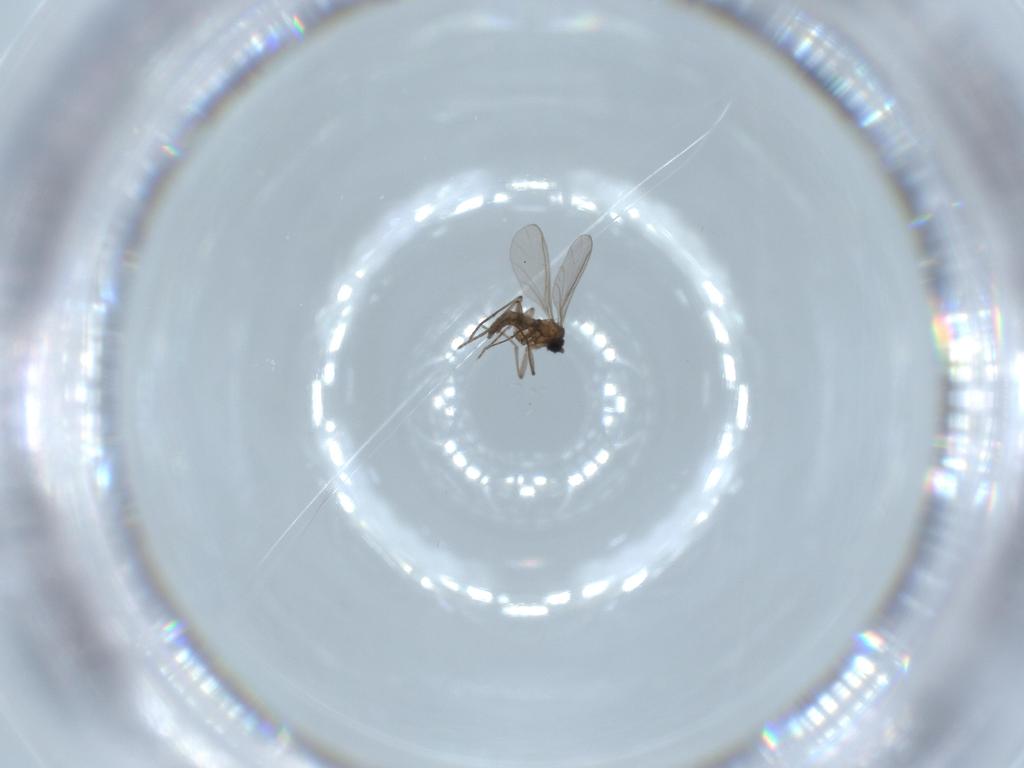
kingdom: Animalia
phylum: Arthropoda
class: Insecta
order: Diptera
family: Sciaridae
